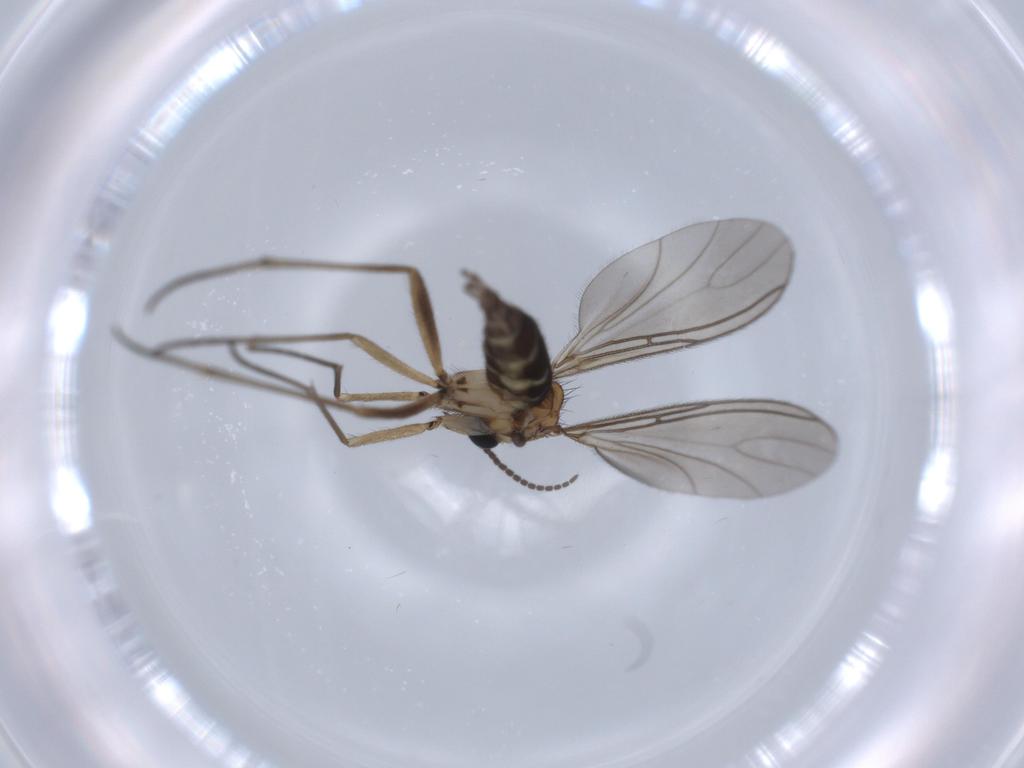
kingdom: Animalia
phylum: Arthropoda
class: Insecta
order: Diptera
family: Sciaridae
